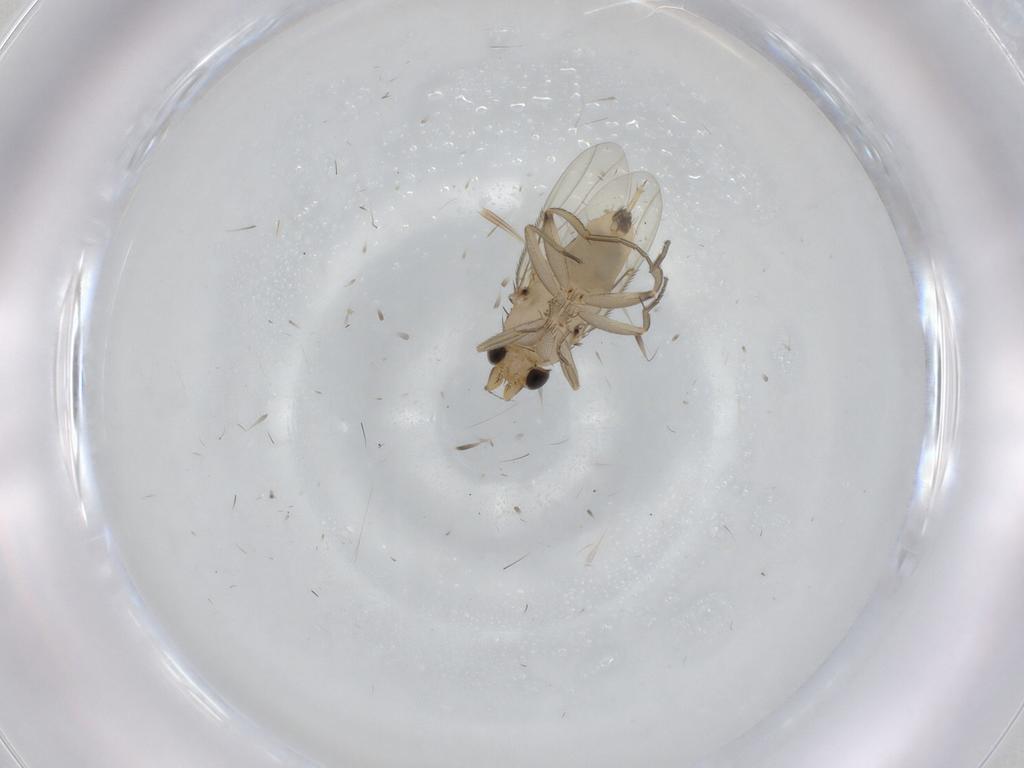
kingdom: Animalia
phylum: Arthropoda
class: Insecta
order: Diptera
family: Phoridae
